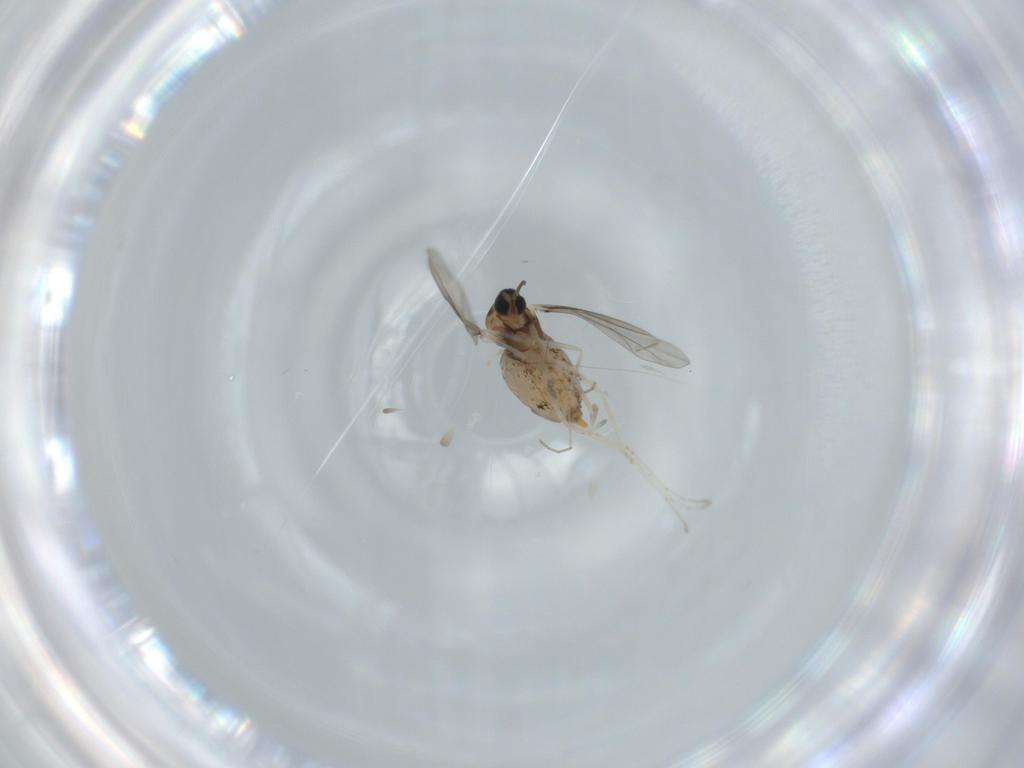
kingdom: Animalia
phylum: Arthropoda
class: Insecta
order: Diptera
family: Cecidomyiidae
